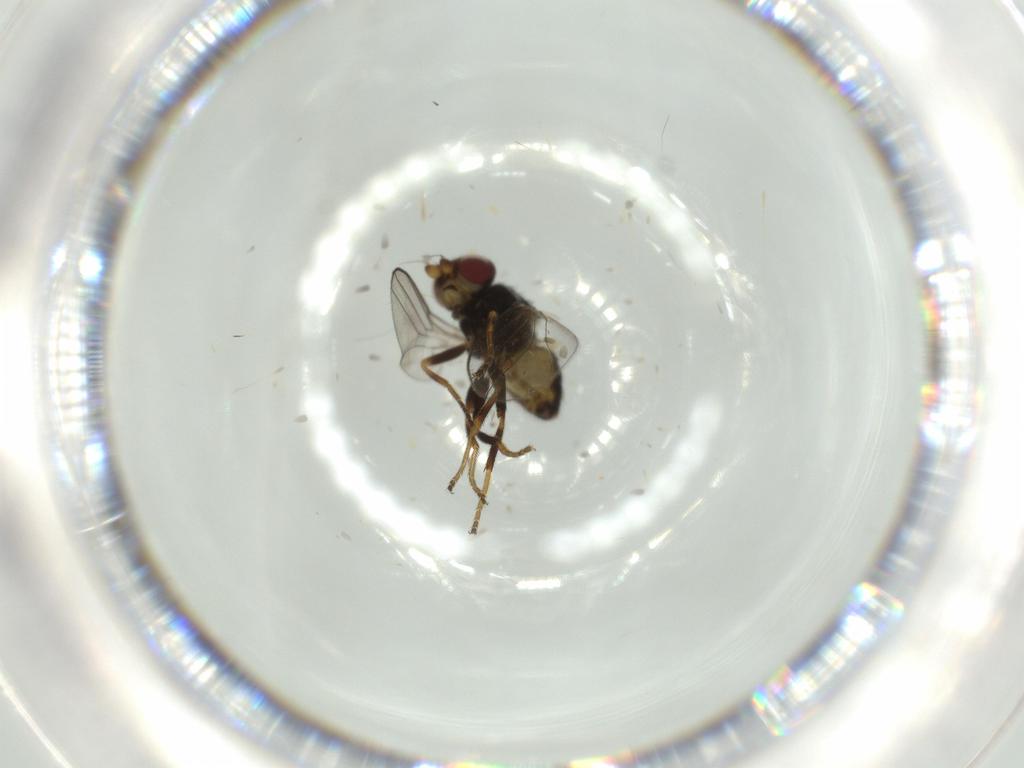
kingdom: Animalia
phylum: Arthropoda
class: Insecta
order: Diptera
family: Chloropidae
